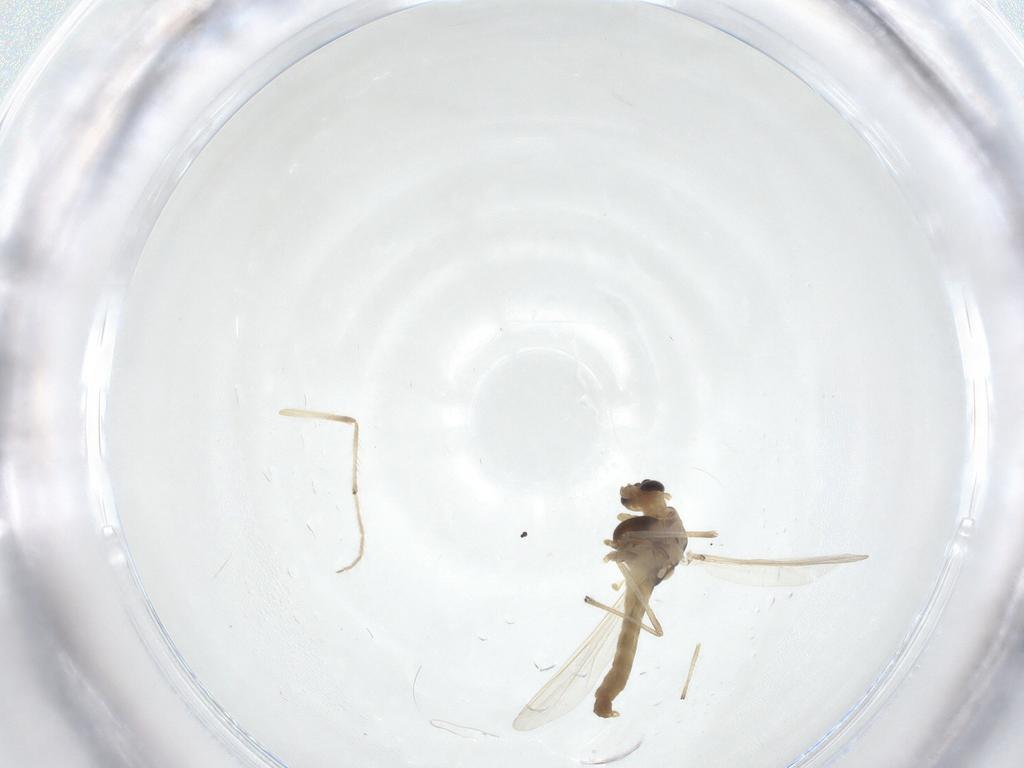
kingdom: Animalia
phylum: Arthropoda
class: Insecta
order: Diptera
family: Chironomidae
